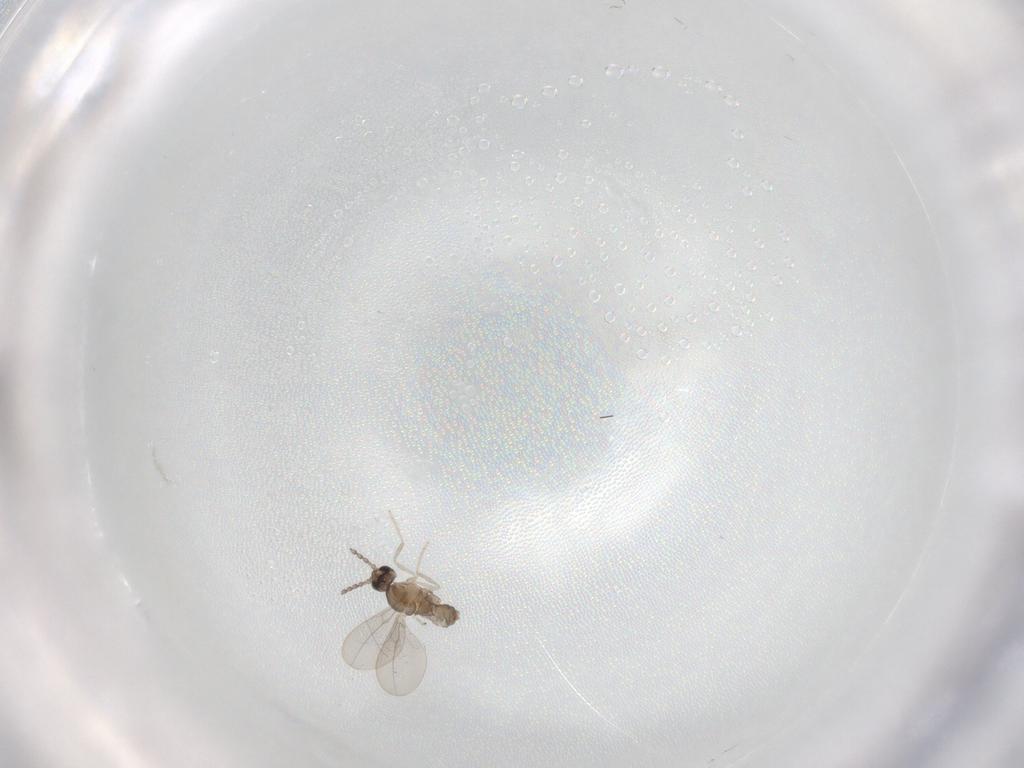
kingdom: Animalia
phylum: Arthropoda
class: Insecta
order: Diptera
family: Cecidomyiidae
